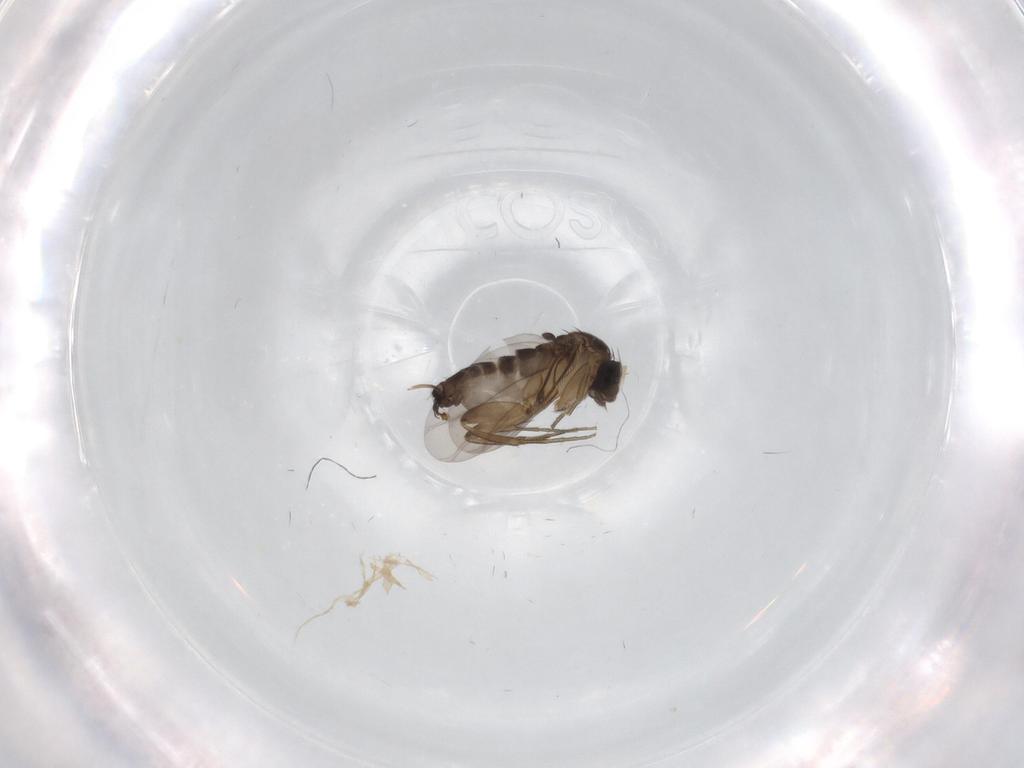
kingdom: Animalia
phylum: Arthropoda
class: Insecta
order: Diptera
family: Phoridae
